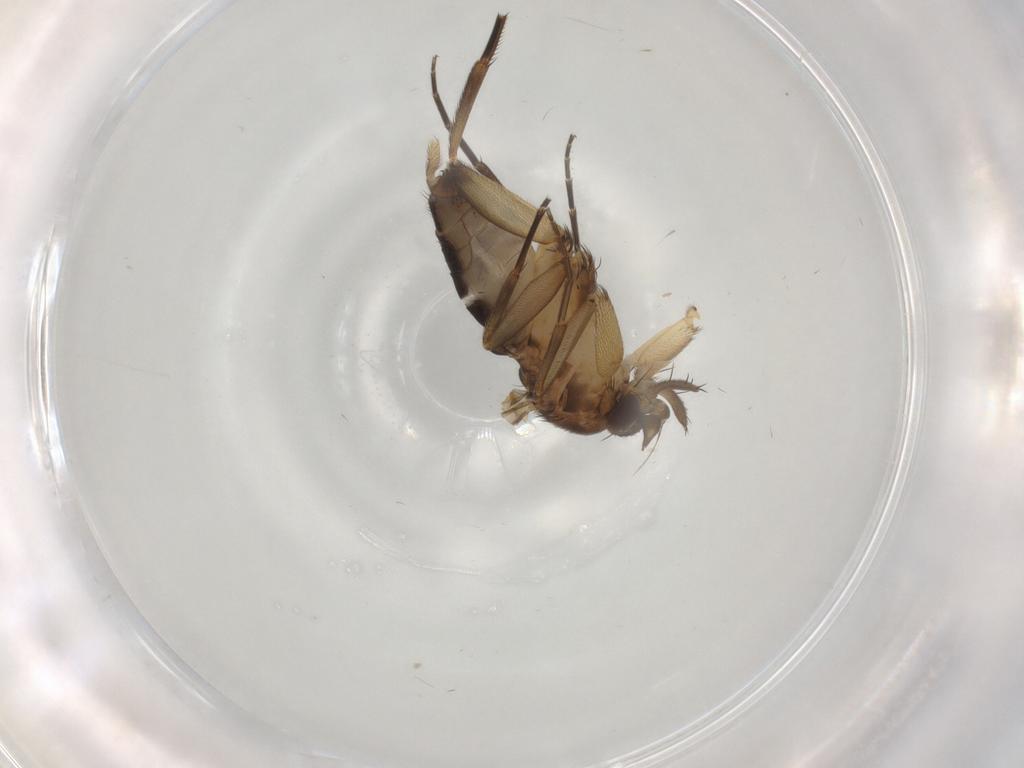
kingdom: Animalia
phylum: Arthropoda
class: Insecta
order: Diptera
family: Phoridae
